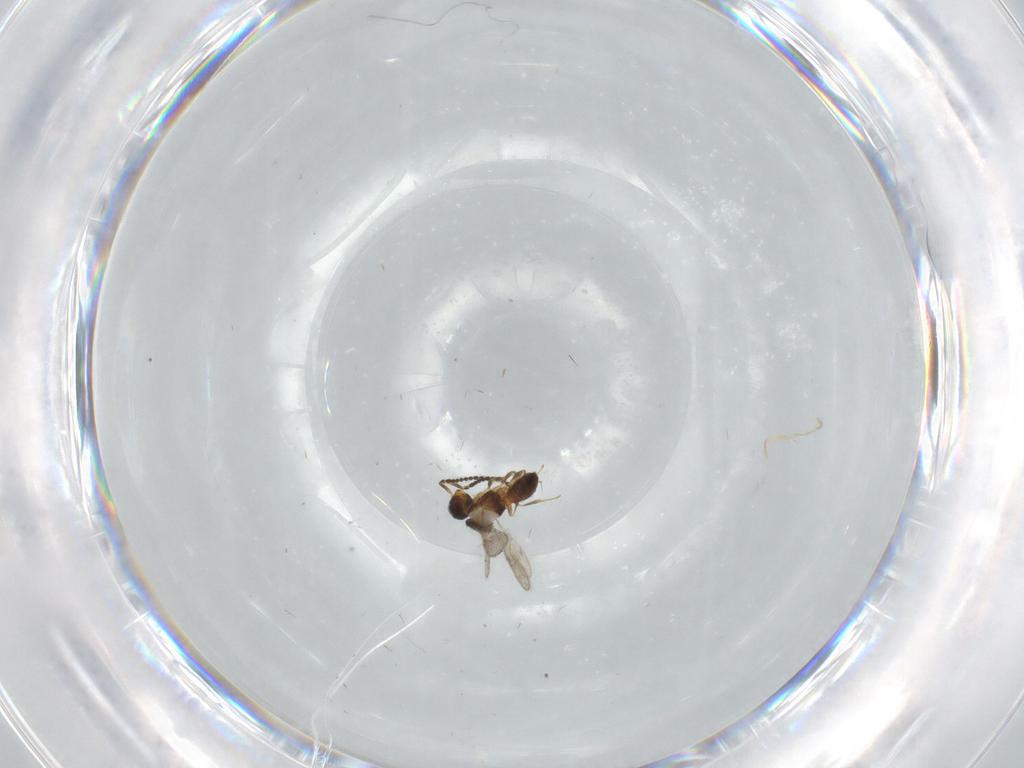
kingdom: Animalia
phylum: Arthropoda
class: Insecta
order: Hymenoptera
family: Scelionidae
